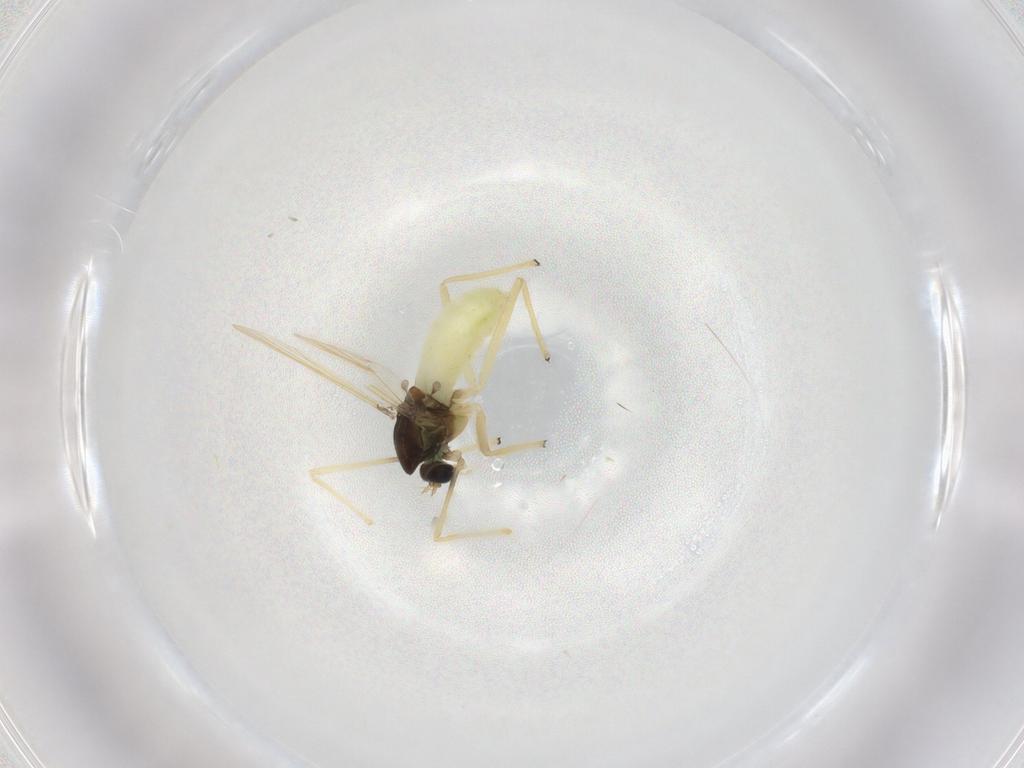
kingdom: Animalia
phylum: Arthropoda
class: Insecta
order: Diptera
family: Chironomidae
